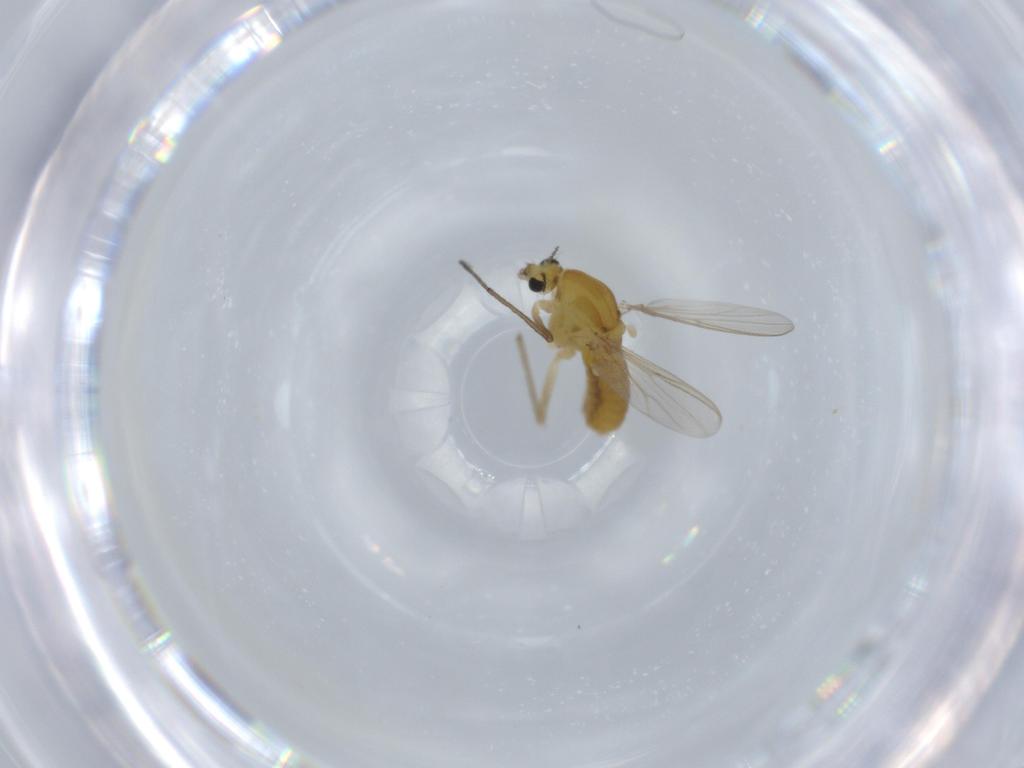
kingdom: Animalia
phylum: Arthropoda
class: Insecta
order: Diptera
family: Chironomidae
